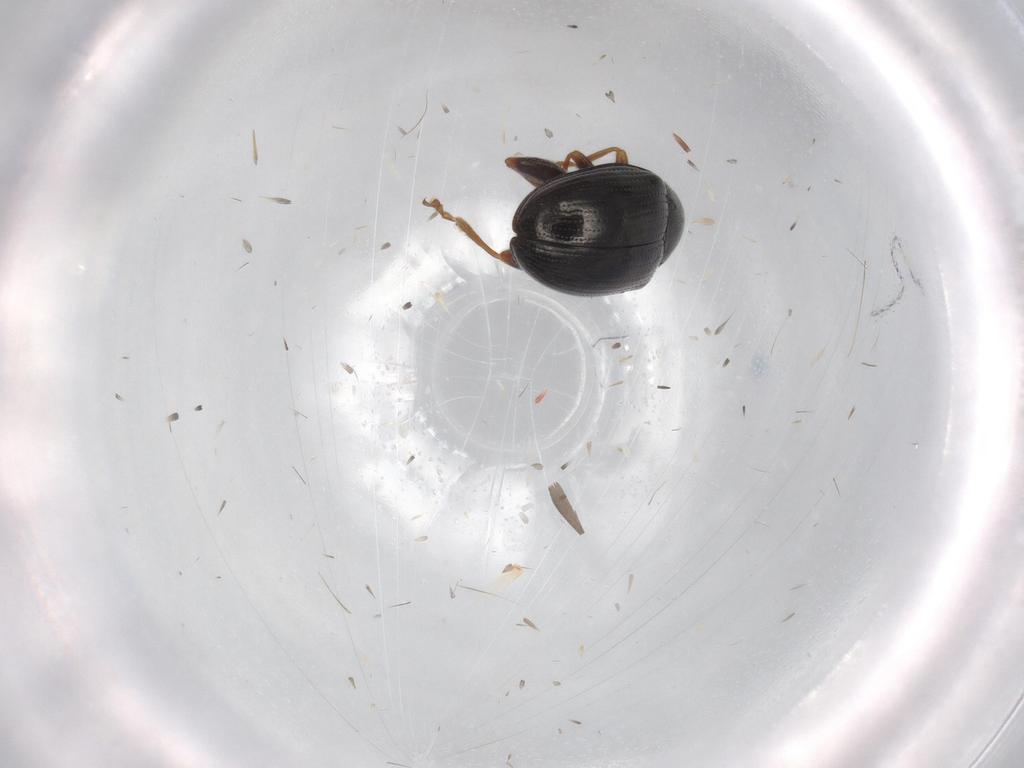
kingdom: Animalia
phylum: Arthropoda
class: Insecta
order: Coleoptera
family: Chrysomelidae
